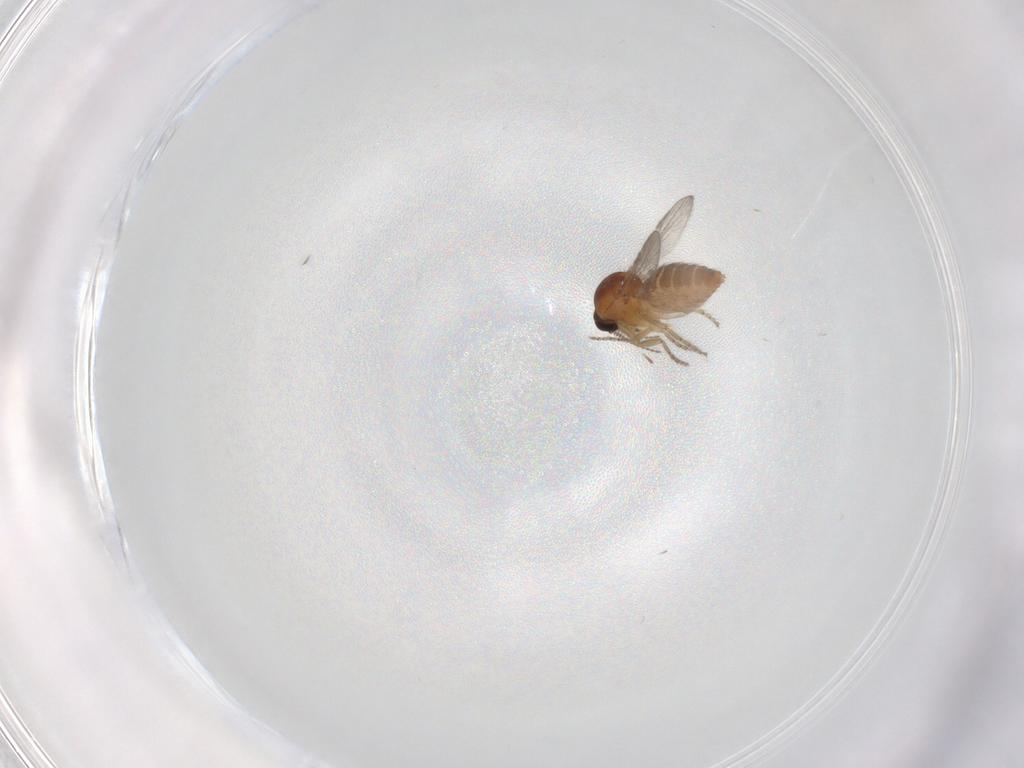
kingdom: Animalia
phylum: Arthropoda
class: Insecta
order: Diptera
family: Ceratopogonidae
